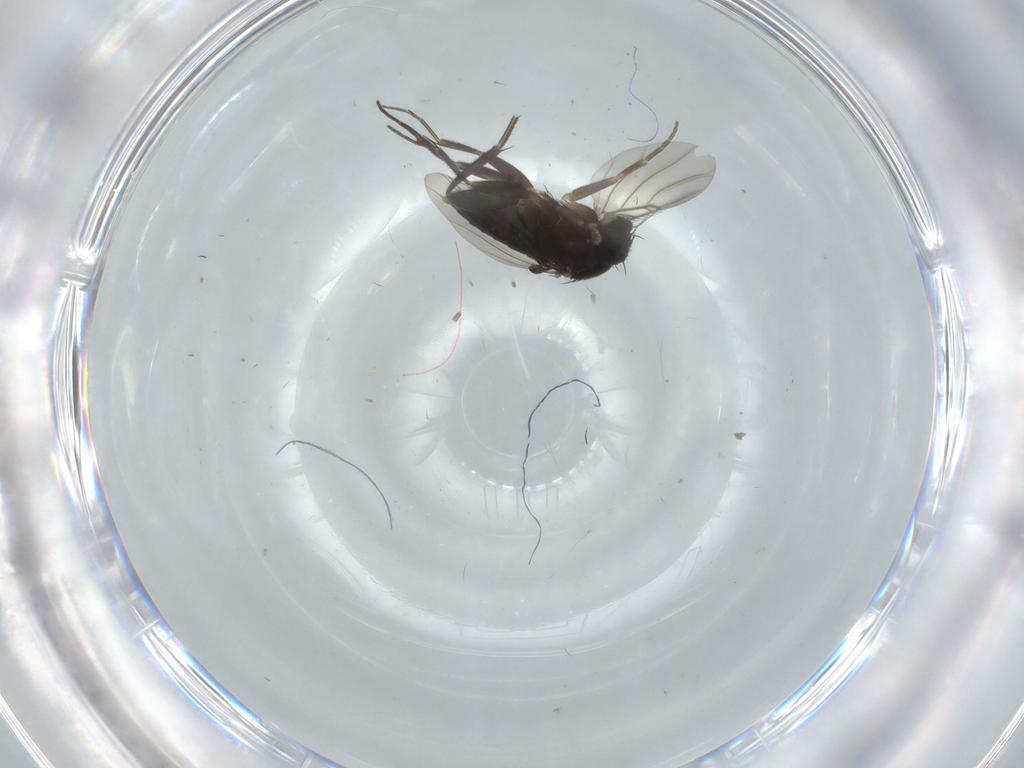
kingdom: Animalia
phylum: Arthropoda
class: Insecta
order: Diptera
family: Phoridae
